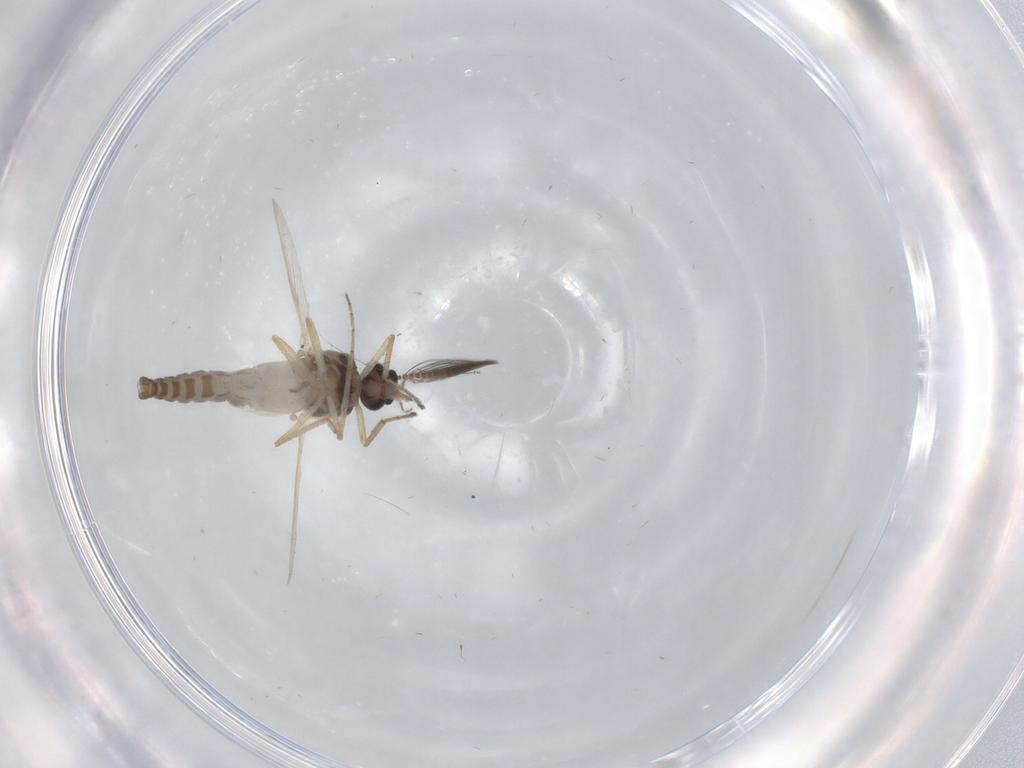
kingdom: Animalia
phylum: Arthropoda
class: Insecta
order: Diptera
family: Ceratopogonidae
